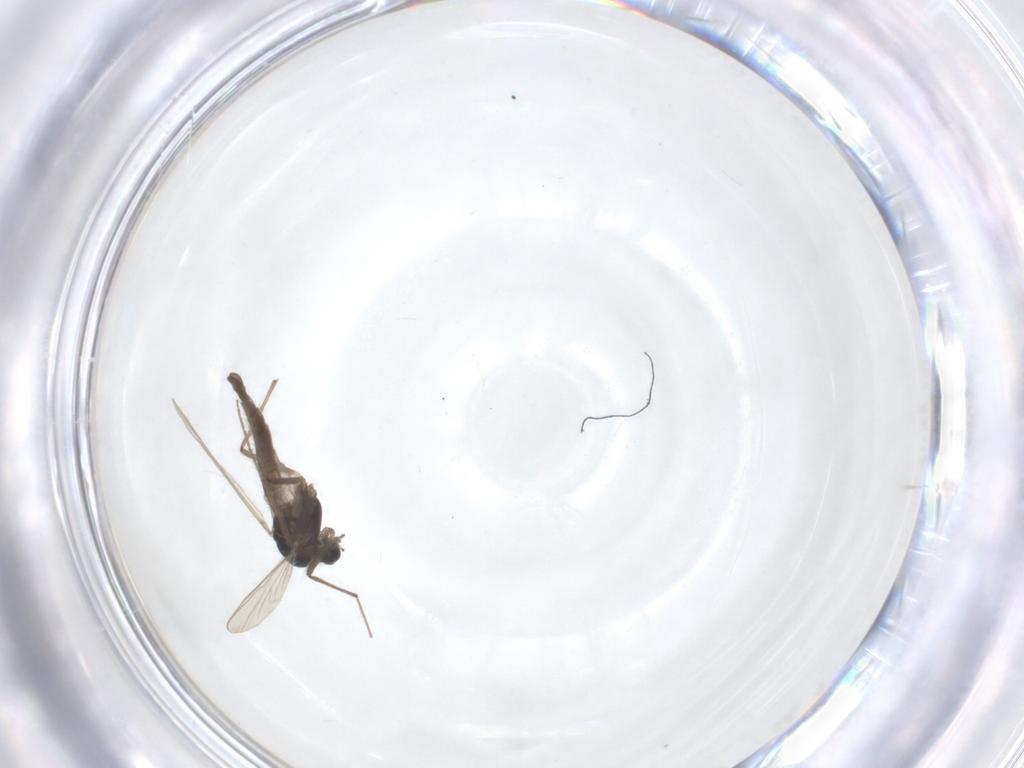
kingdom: Animalia
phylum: Arthropoda
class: Insecta
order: Diptera
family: Chironomidae
